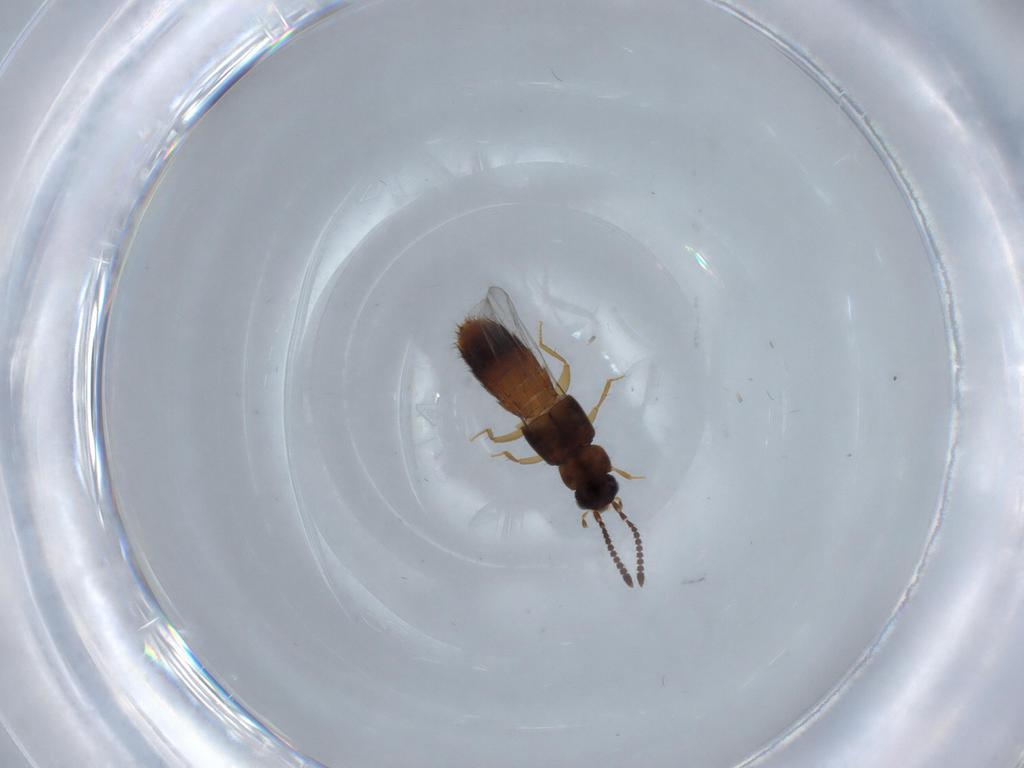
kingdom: Animalia
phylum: Arthropoda
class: Insecta
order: Coleoptera
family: Staphylinidae
